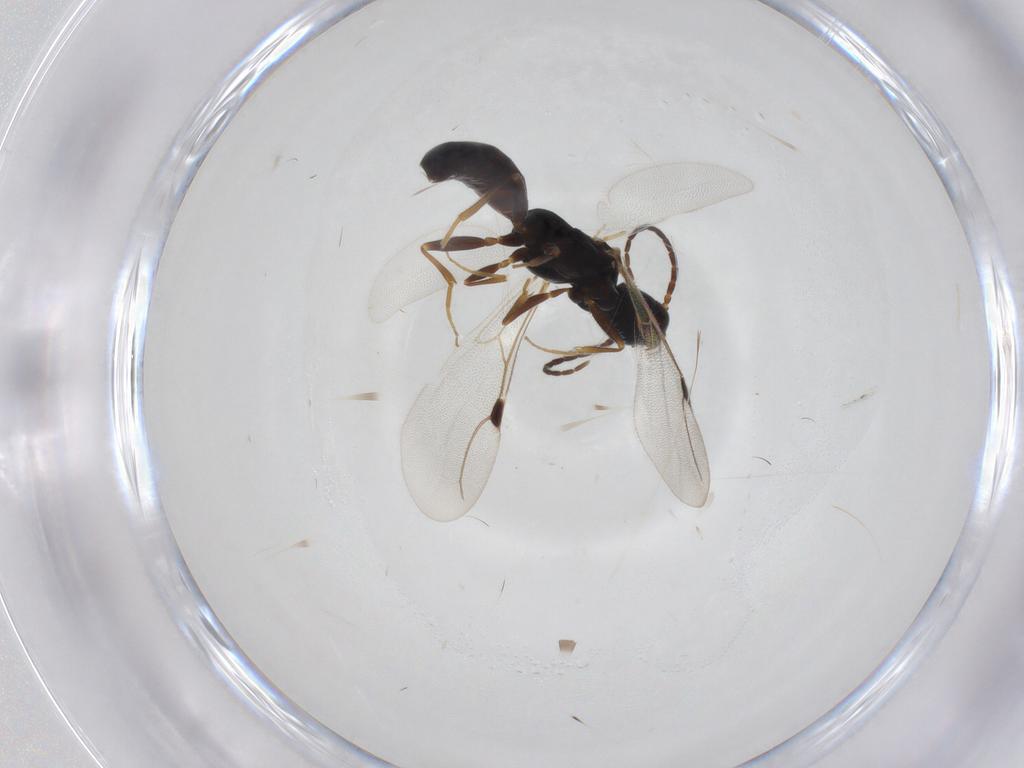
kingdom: Animalia
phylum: Arthropoda
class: Insecta
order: Hymenoptera
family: Bethylidae
